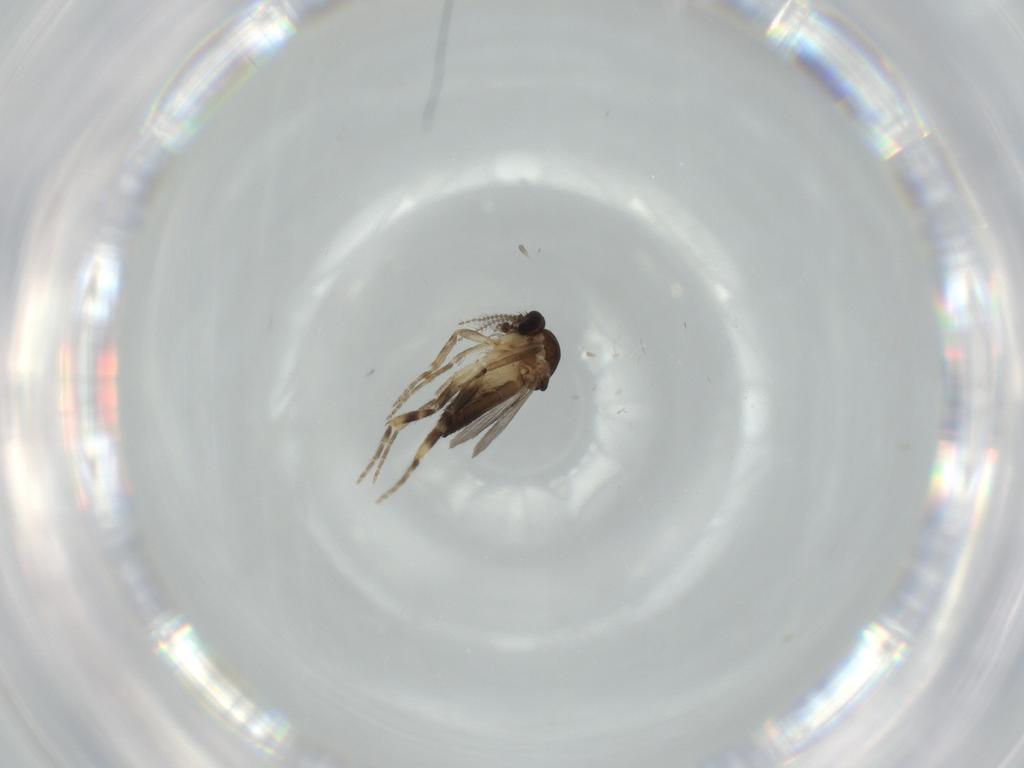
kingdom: Animalia
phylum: Arthropoda
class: Insecta
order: Diptera
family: Ceratopogonidae
